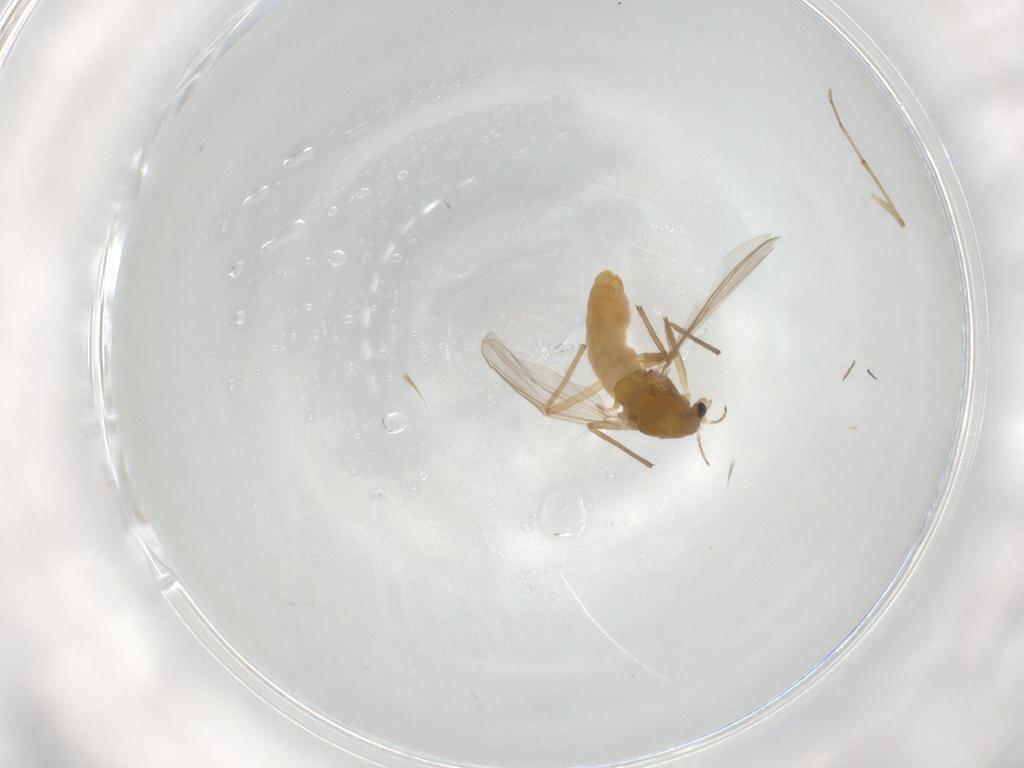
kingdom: Animalia
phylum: Arthropoda
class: Insecta
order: Diptera
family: Chironomidae
